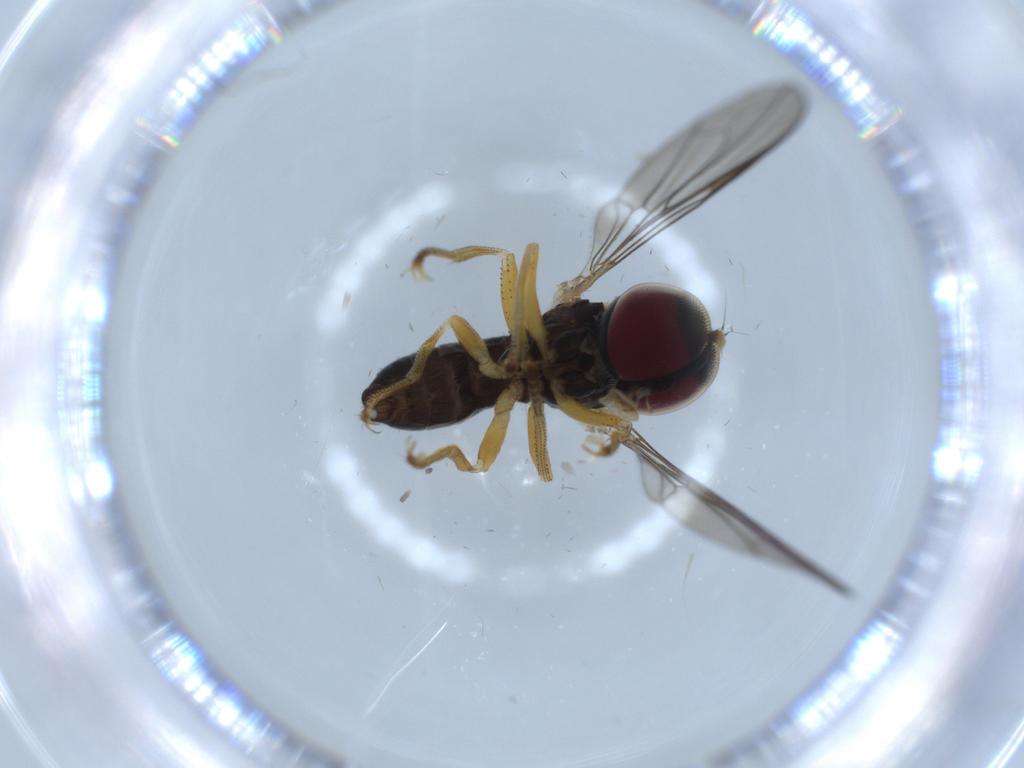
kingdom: Animalia
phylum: Arthropoda
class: Insecta
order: Diptera
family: Pipunculidae
